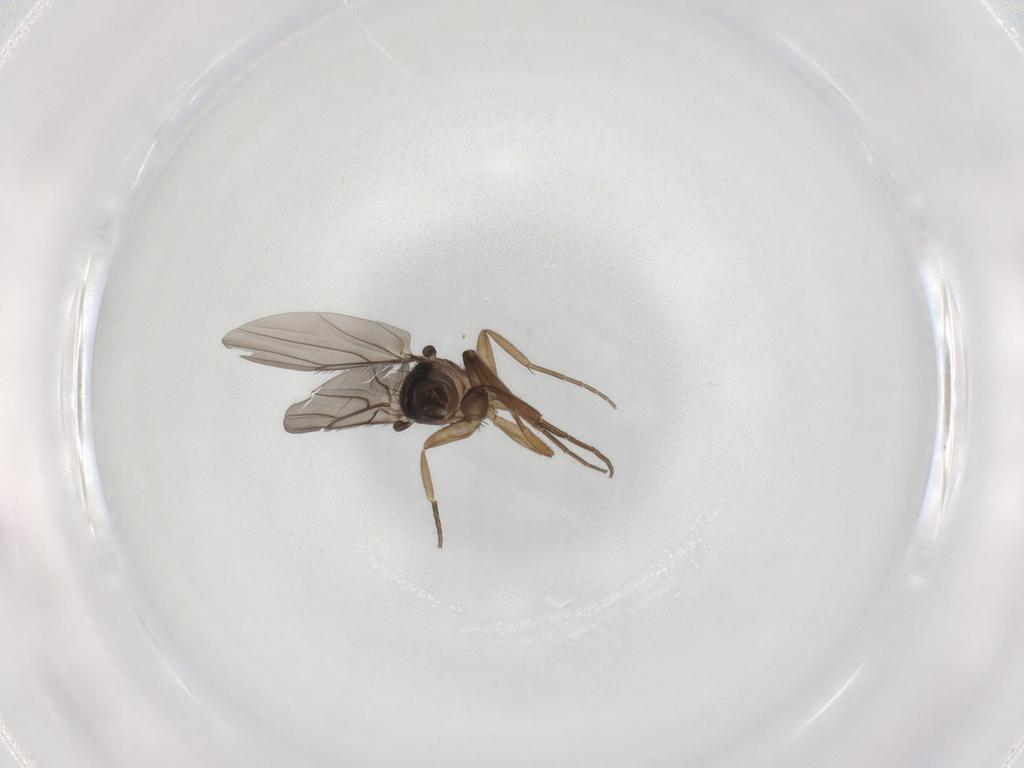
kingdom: Animalia
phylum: Arthropoda
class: Insecta
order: Diptera
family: Phoridae
